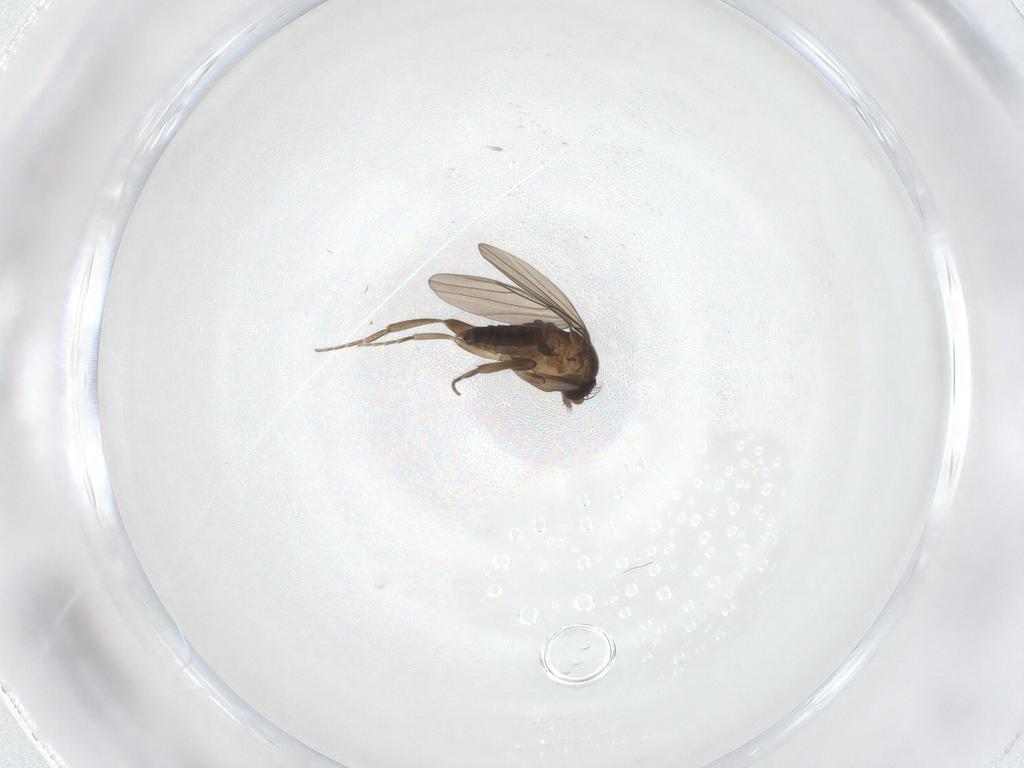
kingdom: Animalia
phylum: Arthropoda
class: Insecta
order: Diptera
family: Phoridae
